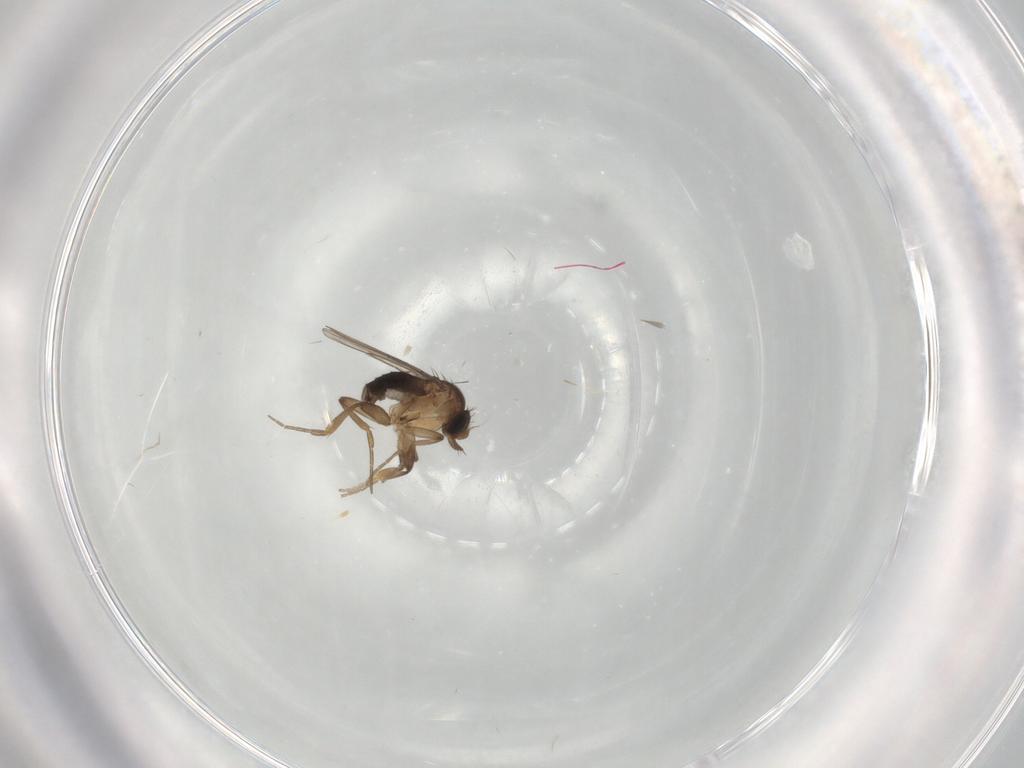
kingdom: Animalia
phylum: Arthropoda
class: Insecta
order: Diptera
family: Phoridae
